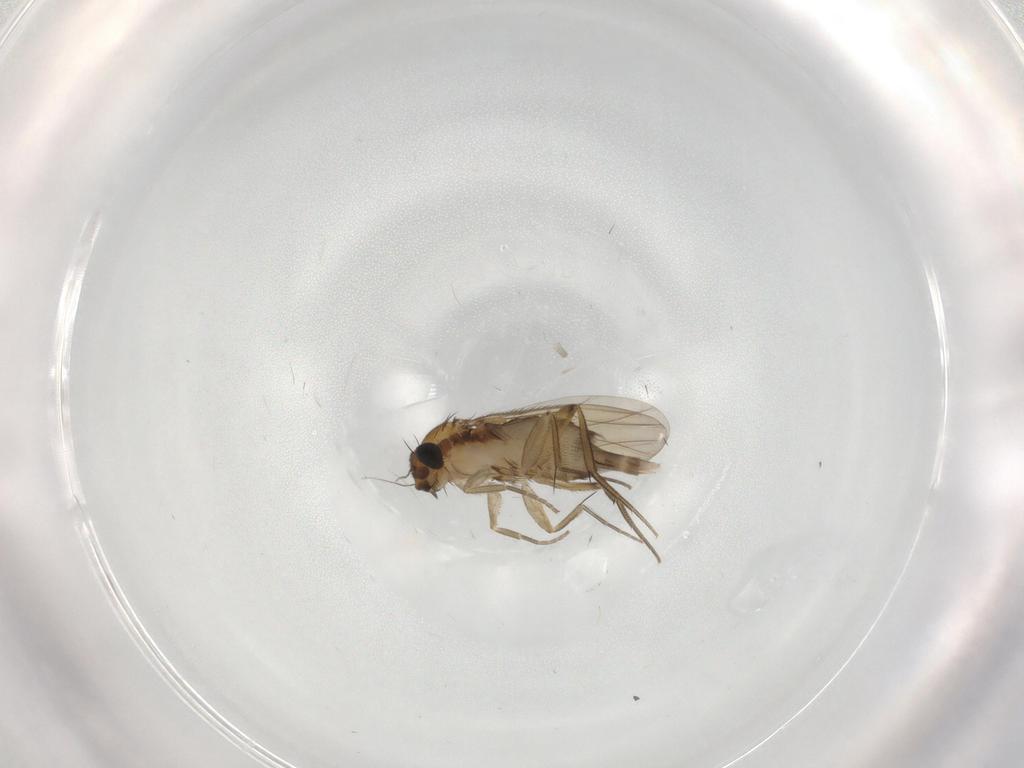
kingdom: Animalia
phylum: Arthropoda
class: Insecta
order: Diptera
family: Phoridae
